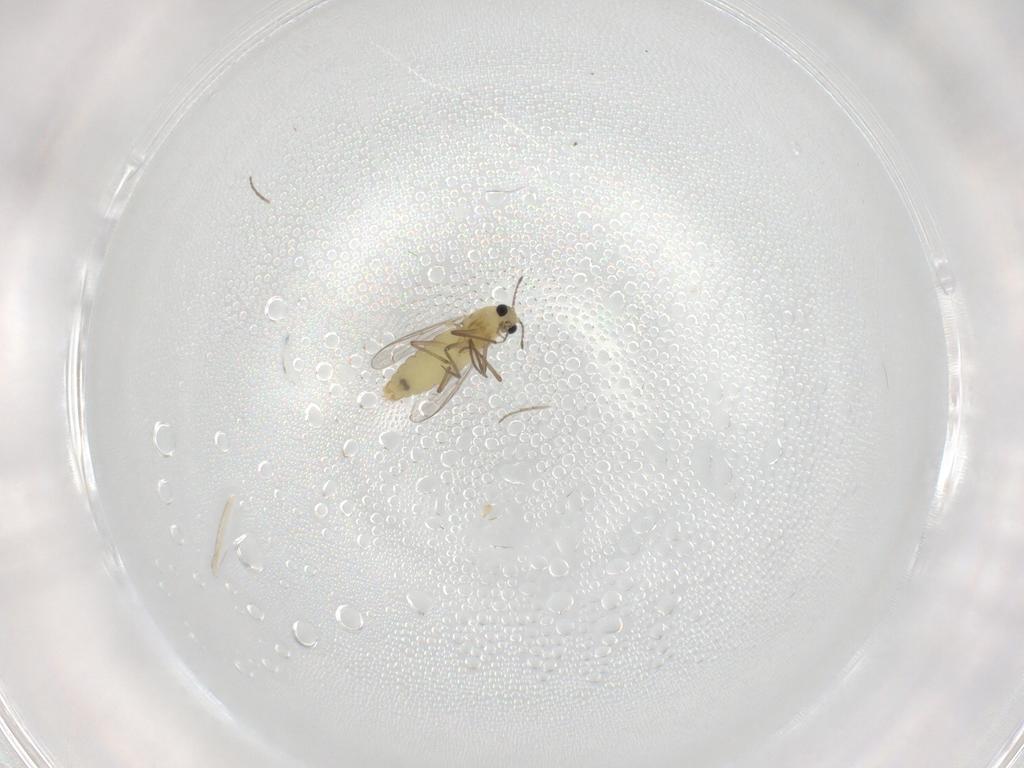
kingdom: Animalia
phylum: Arthropoda
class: Insecta
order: Diptera
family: Chironomidae
